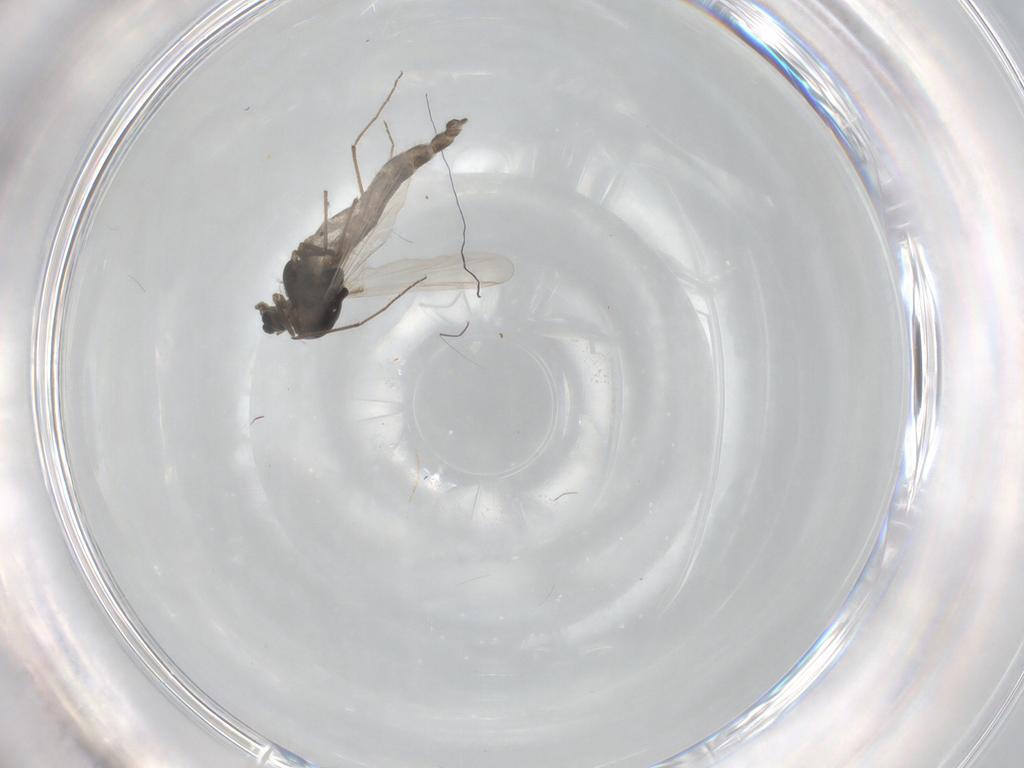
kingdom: Animalia
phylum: Arthropoda
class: Insecta
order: Diptera
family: Chironomidae
